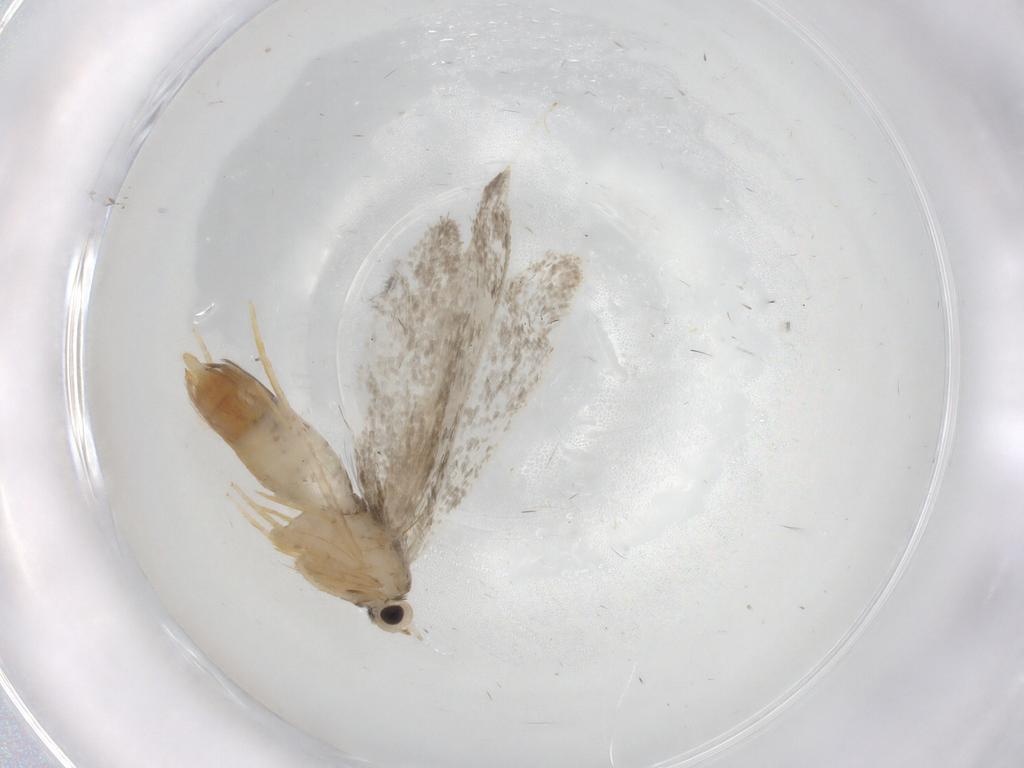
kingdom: Animalia
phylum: Arthropoda
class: Insecta
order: Lepidoptera
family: Psychidae
